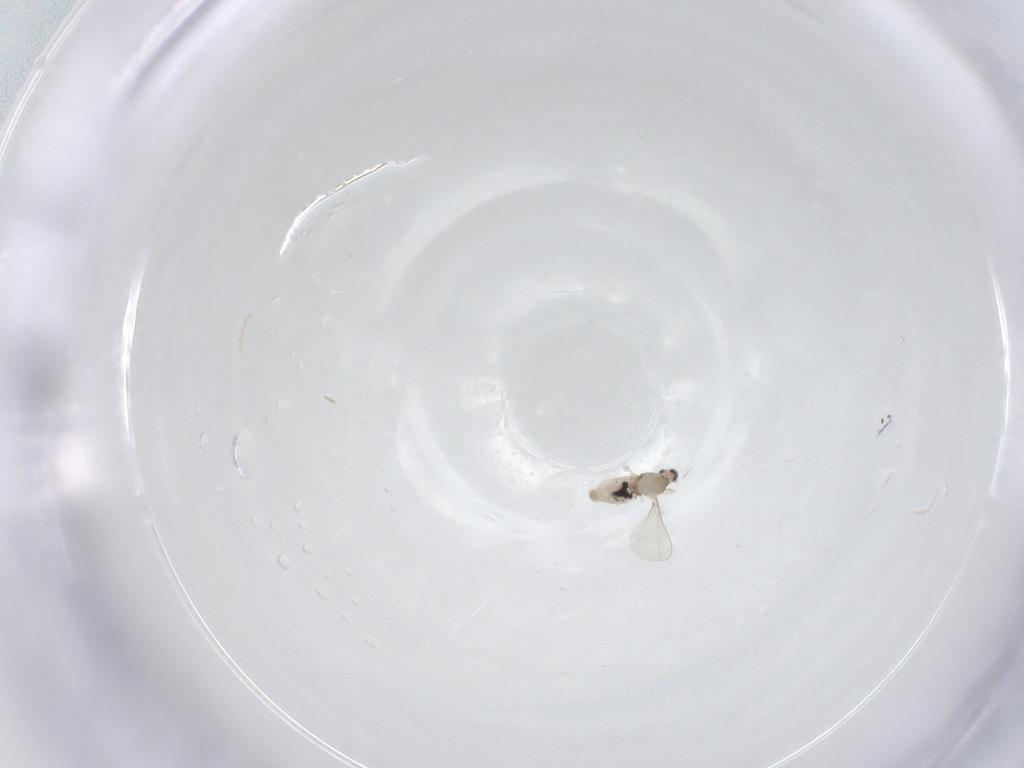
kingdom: Animalia
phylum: Arthropoda
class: Insecta
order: Diptera
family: Cecidomyiidae
